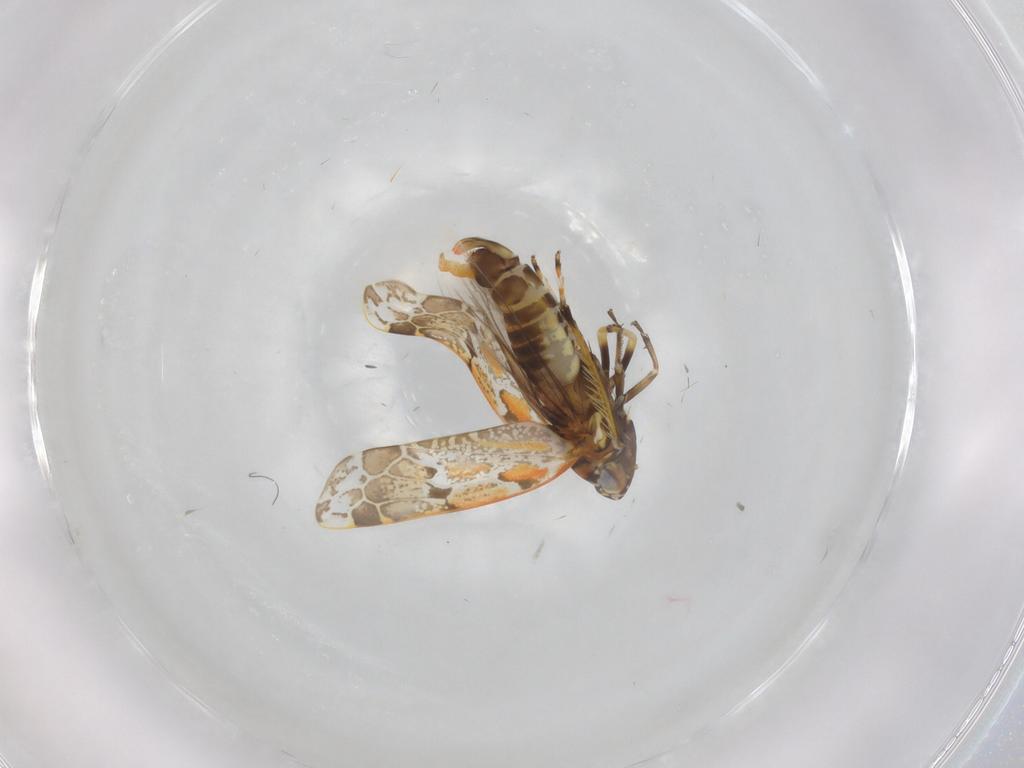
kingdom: Animalia
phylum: Arthropoda
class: Insecta
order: Hemiptera
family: Cicadellidae
